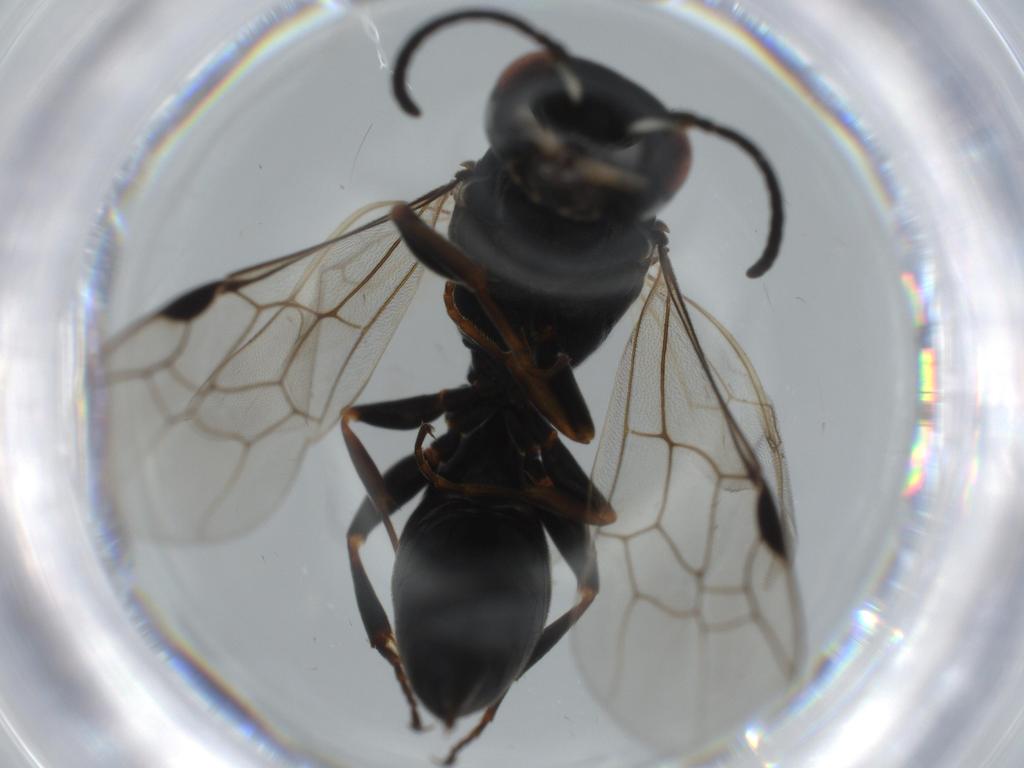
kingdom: Animalia
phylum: Arthropoda
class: Insecta
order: Hymenoptera
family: Crabronidae
